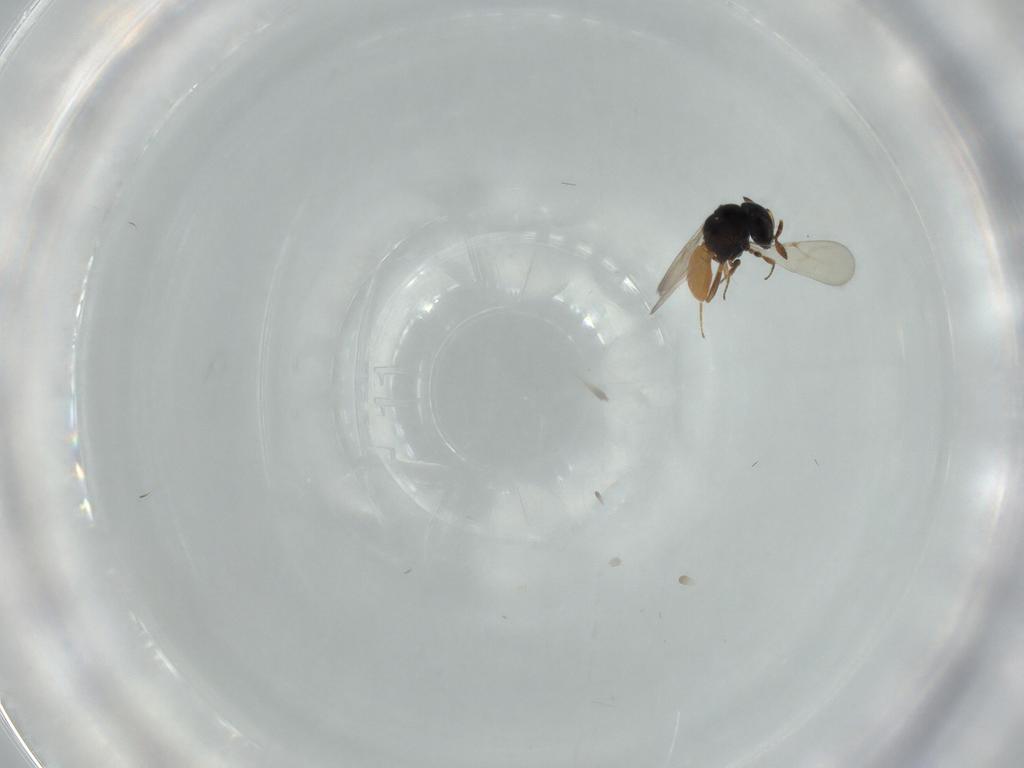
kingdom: Animalia
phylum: Arthropoda
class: Insecta
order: Hymenoptera
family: Scelionidae
